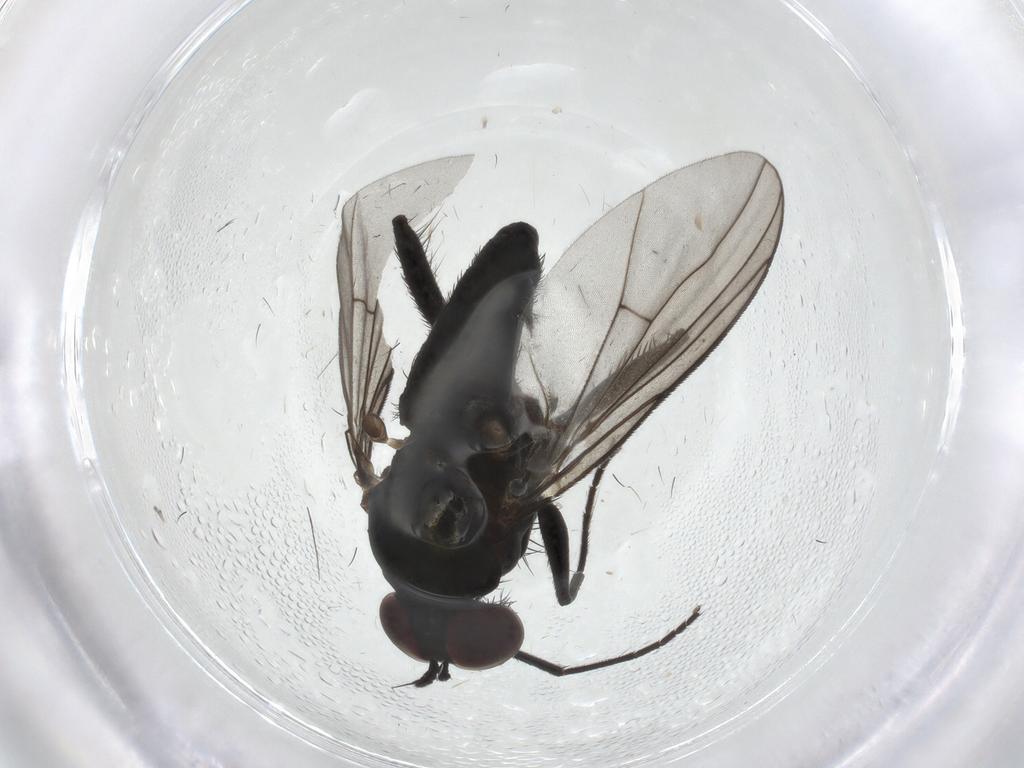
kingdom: Animalia
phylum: Arthropoda
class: Insecta
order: Diptera
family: Dolichopodidae
